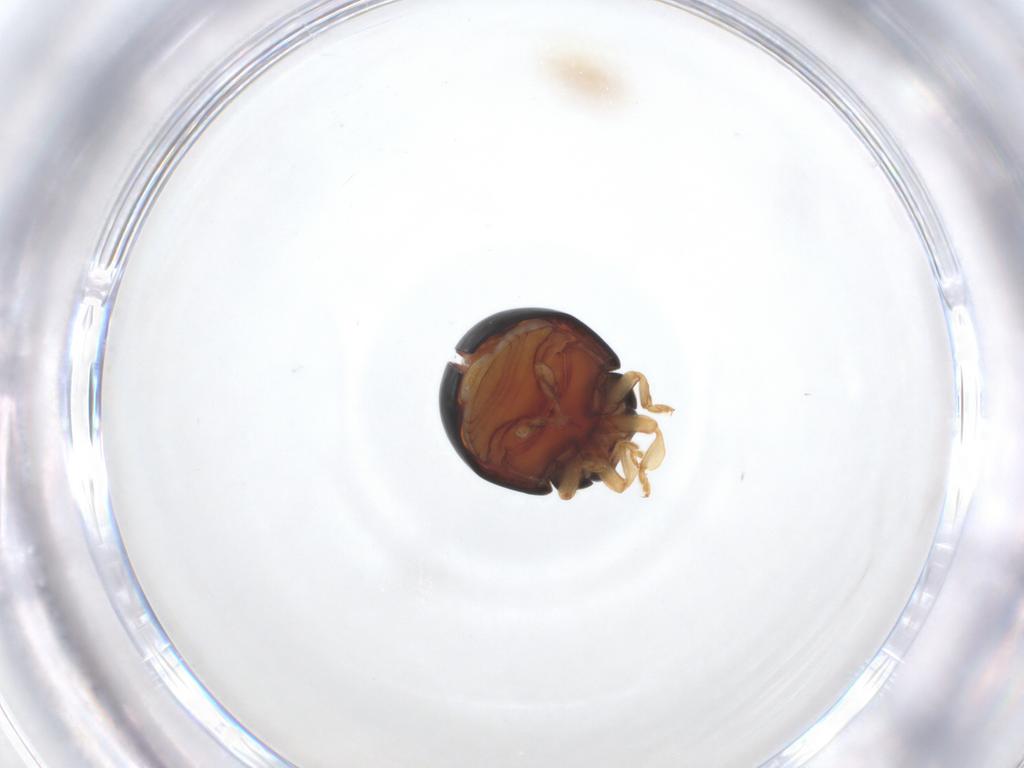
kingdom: Animalia
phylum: Arthropoda
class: Insecta
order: Coleoptera
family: Coccinellidae
